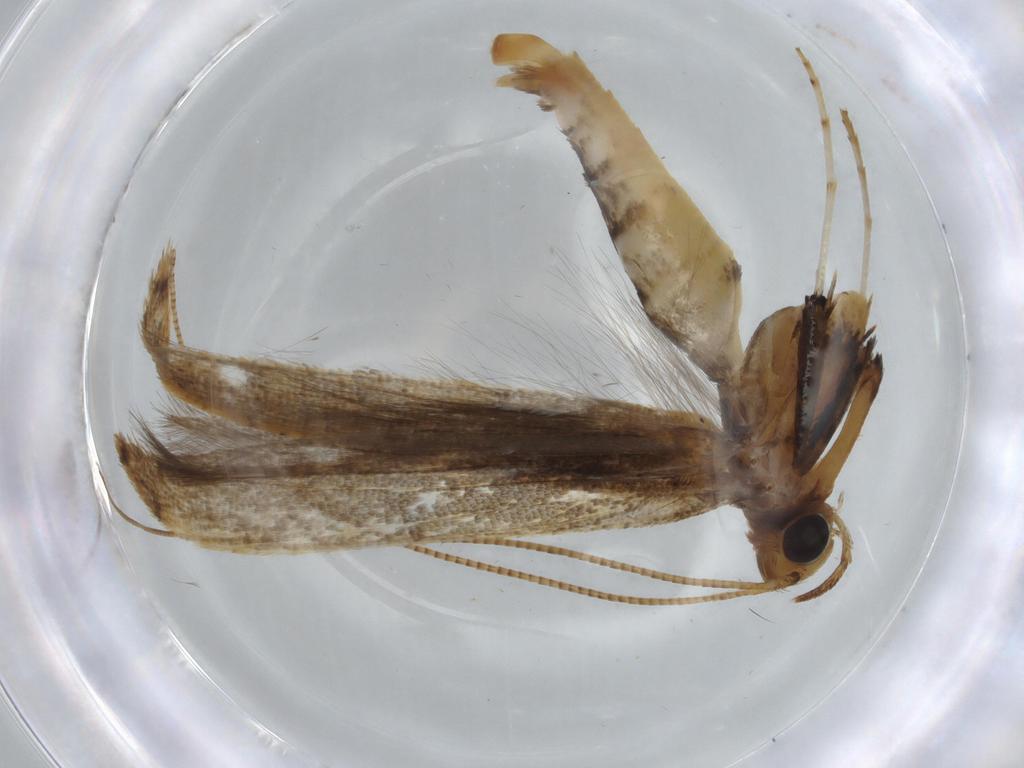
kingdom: Animalia
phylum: Arthropoda
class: Insecta
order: Lepidoptera
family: Gracillariidae
